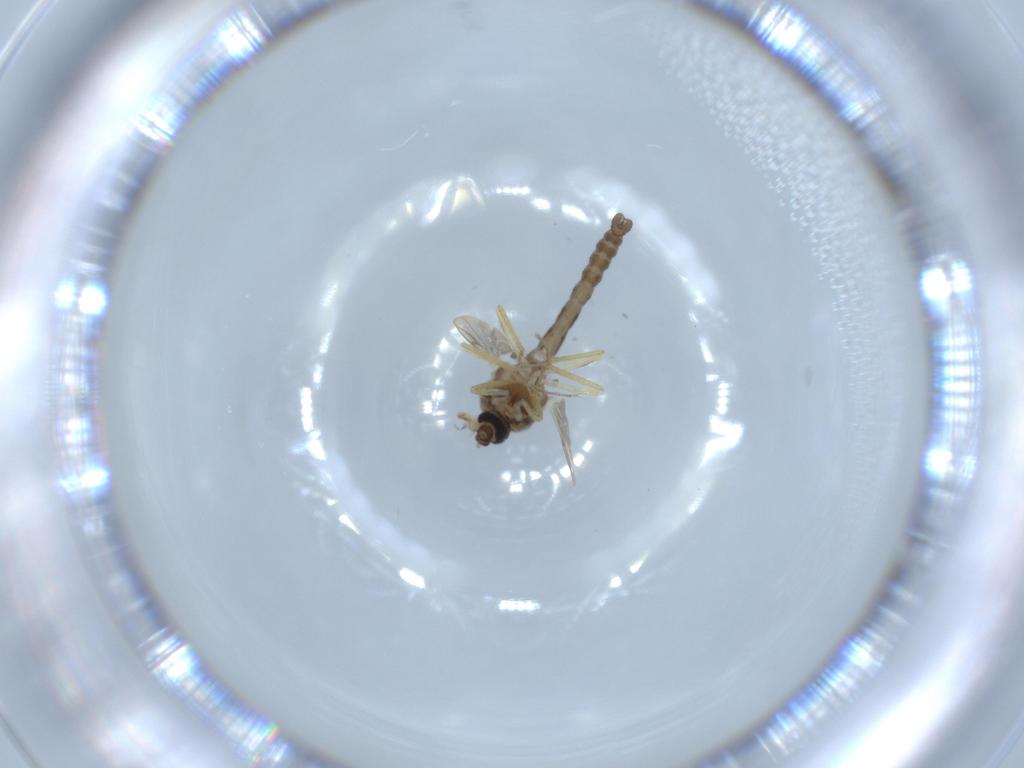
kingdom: Animalia
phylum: Arthropoda
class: Insecta
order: Diptera
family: Ceratopogonidae
